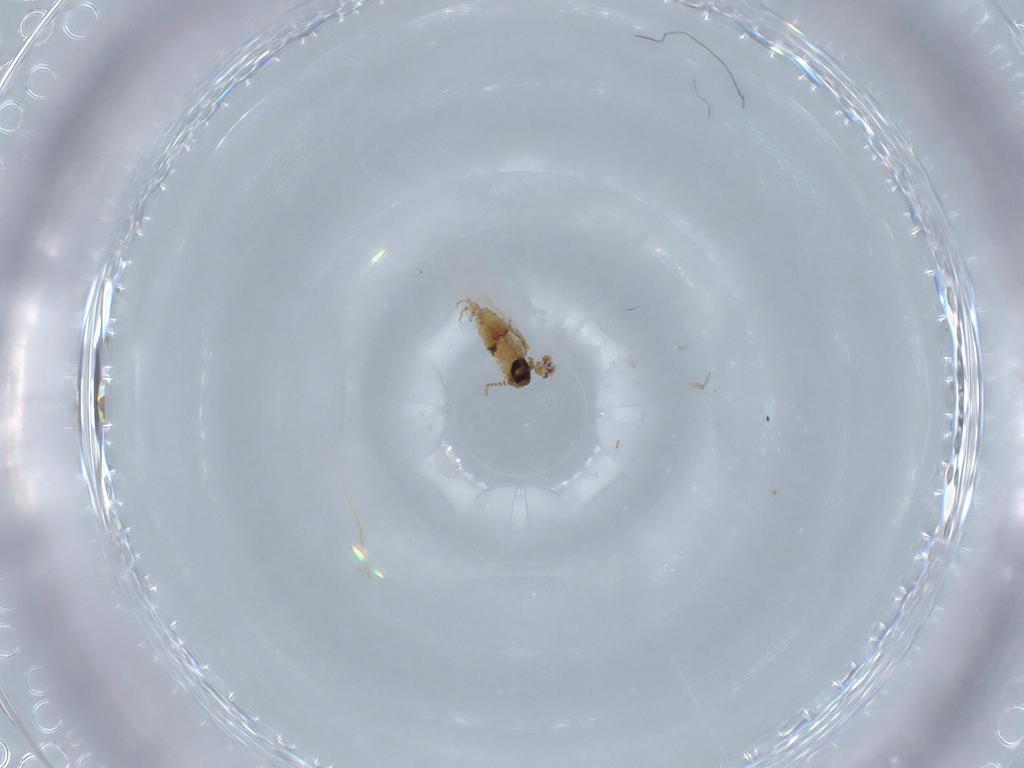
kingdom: Animalia
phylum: Arthropoda
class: Insecta
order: Diptera
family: Psychodidae
